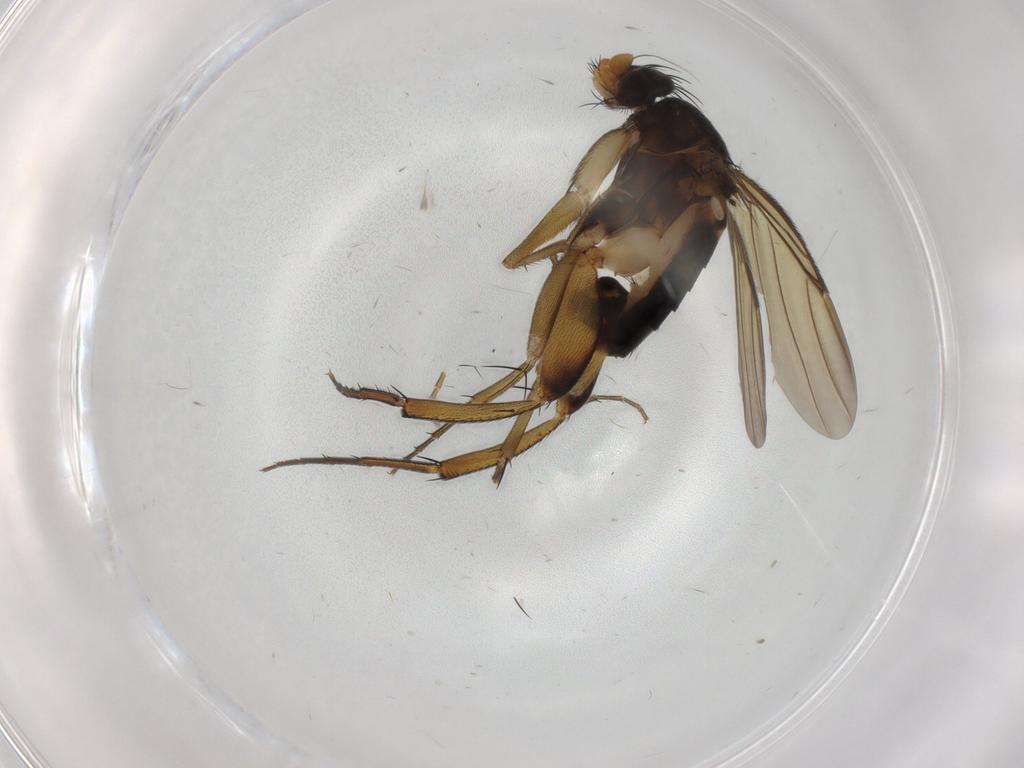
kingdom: Animalia
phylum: Arthropoda
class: Insecta
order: Diptera
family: Phoridae
